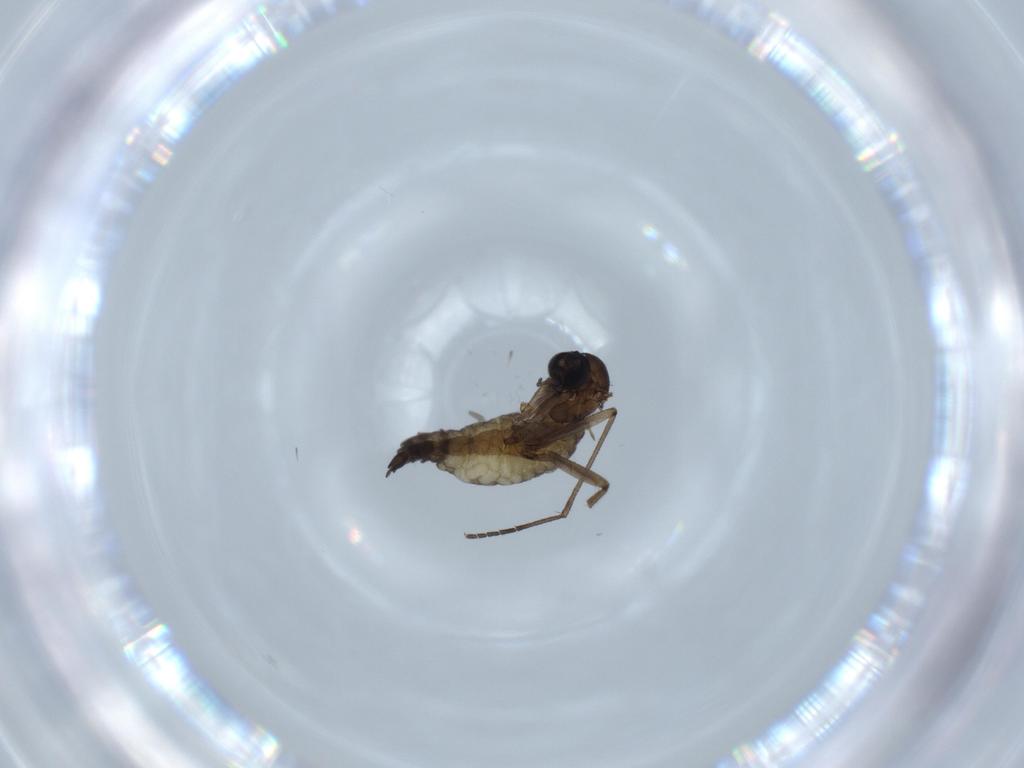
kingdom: Animalia
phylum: Arthropoda
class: Insecta
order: Diptera
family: Sciaridae
